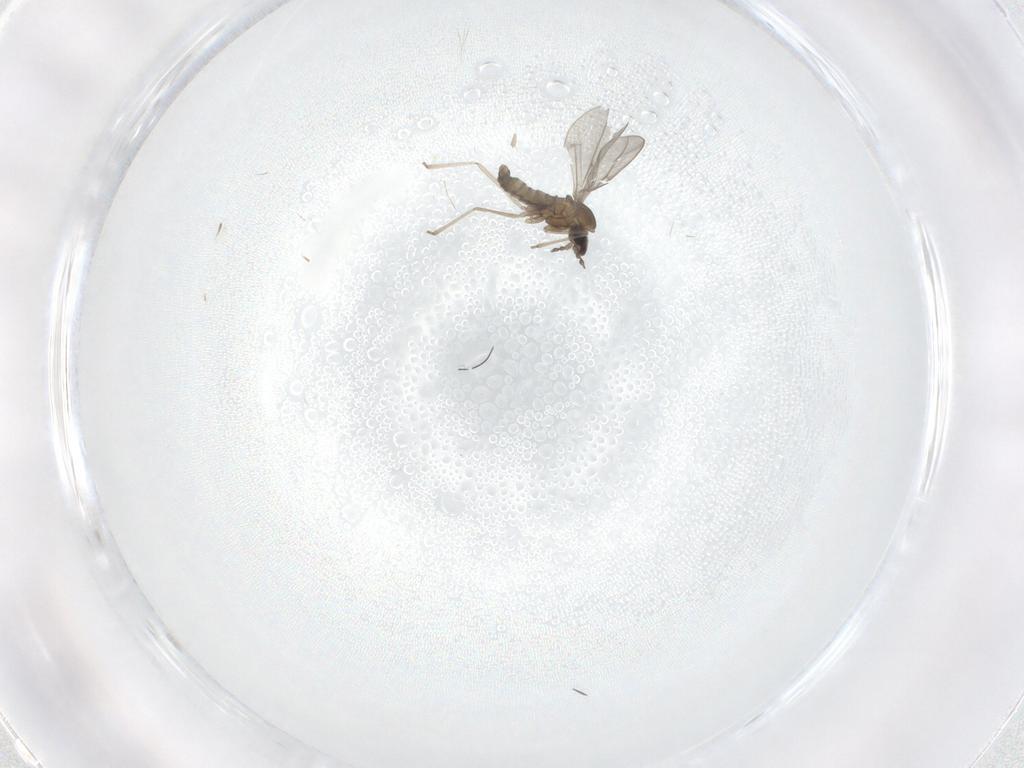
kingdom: Animalia
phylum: Arthropoda
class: Insecta
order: Diptera
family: Cecidomyiidae
